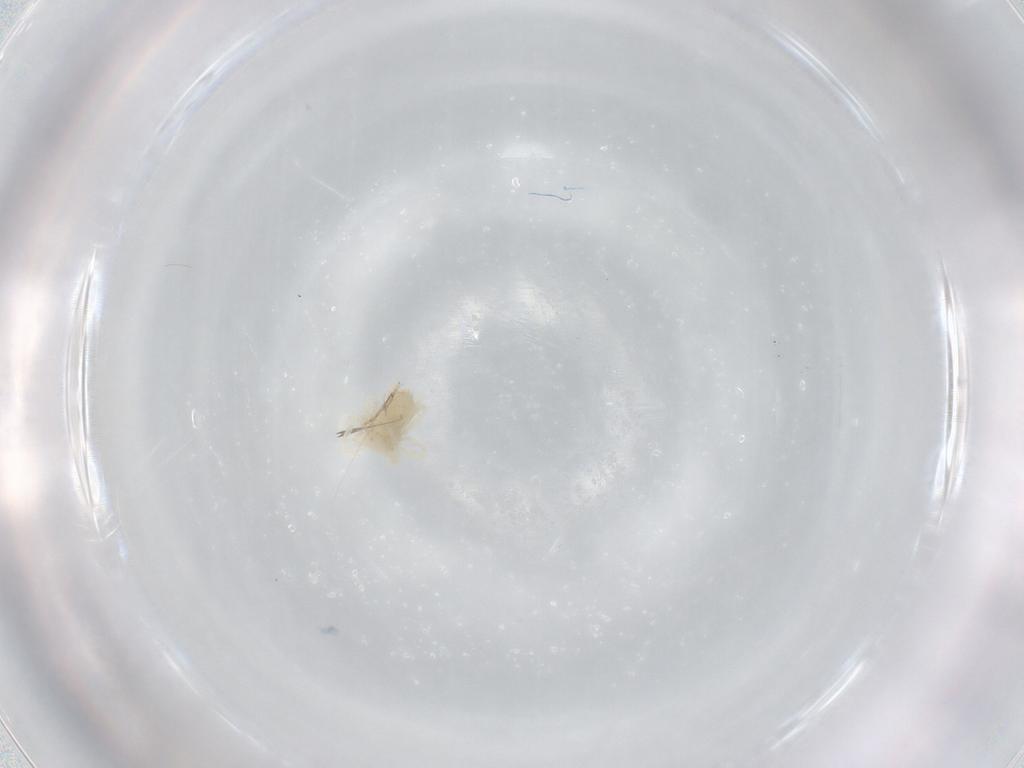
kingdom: Animalia
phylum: Arthropoda
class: Arachnida
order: Trombidiformes
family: Anystidae
